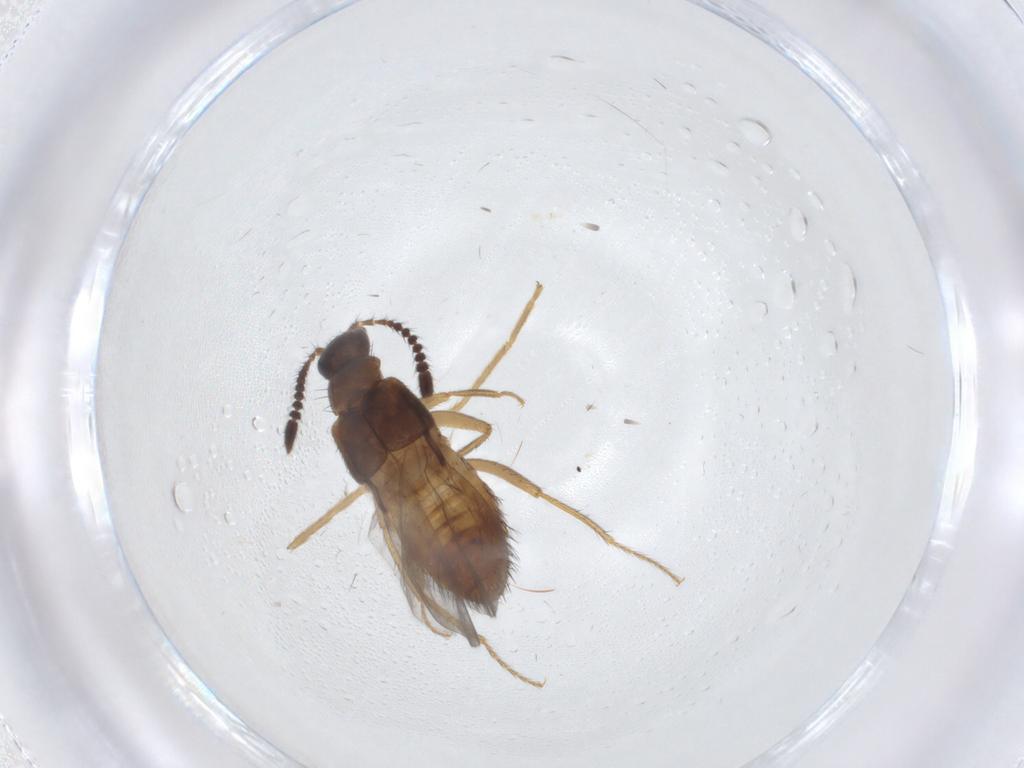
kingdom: Animalia
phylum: Arthropoda
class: Insecta
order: Coleoptera
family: Staphylinidae
